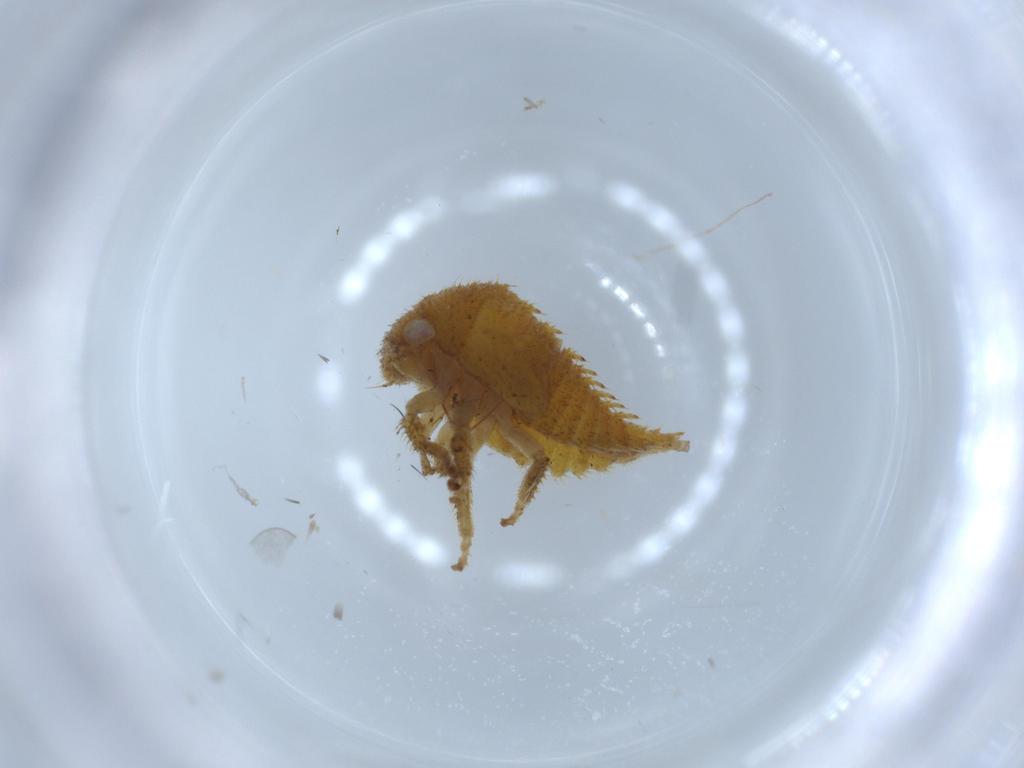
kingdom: Animalia
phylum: Arthropoda
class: Insecta
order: Hemiptera
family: Membracidae
